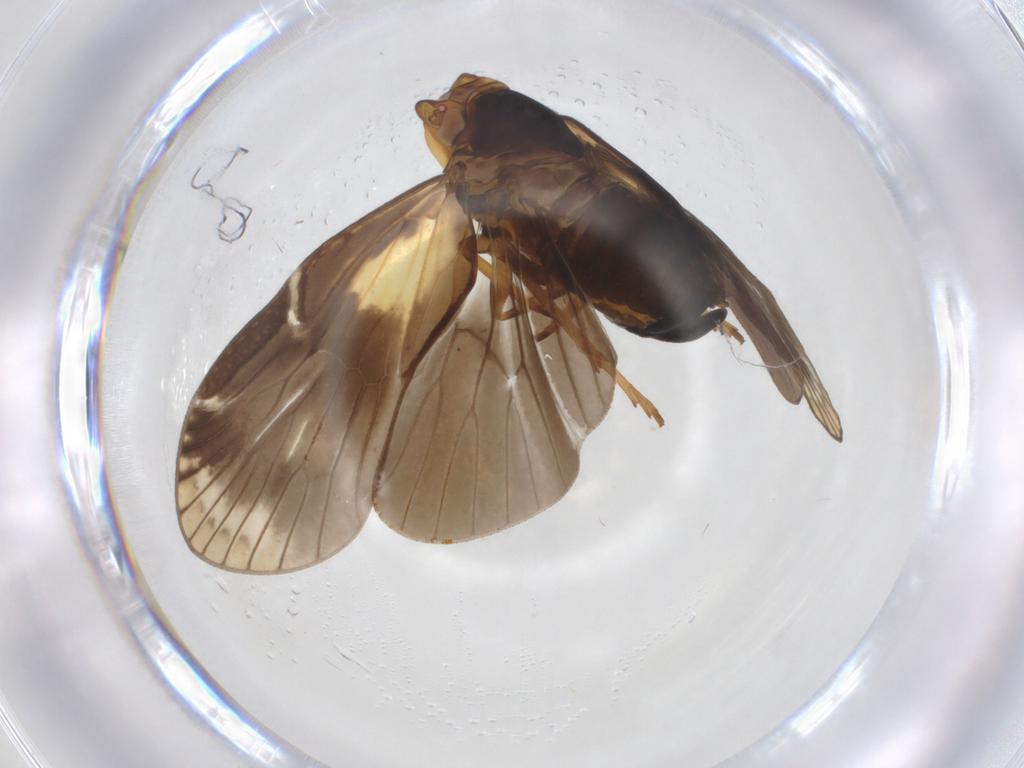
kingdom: Animalia
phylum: Arthropoda
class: Insecta
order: Hemiptera
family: Cixiidae
